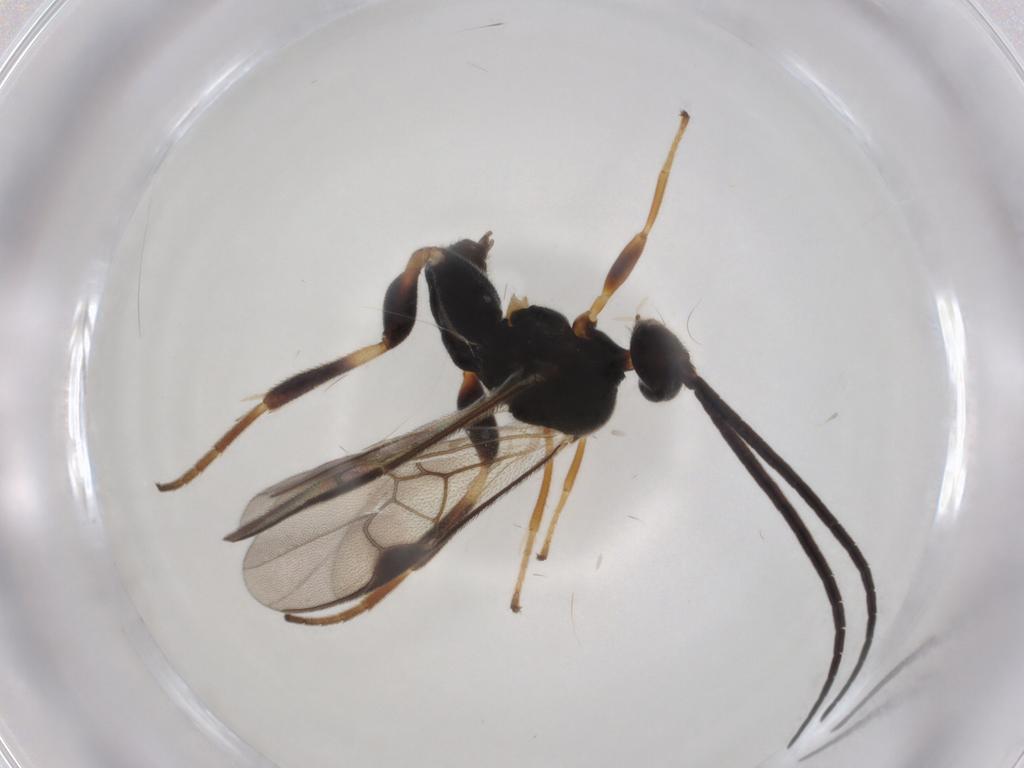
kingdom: Animalia
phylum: Arthropoda
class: Insecta
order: Hymenoptera
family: Braconidae
